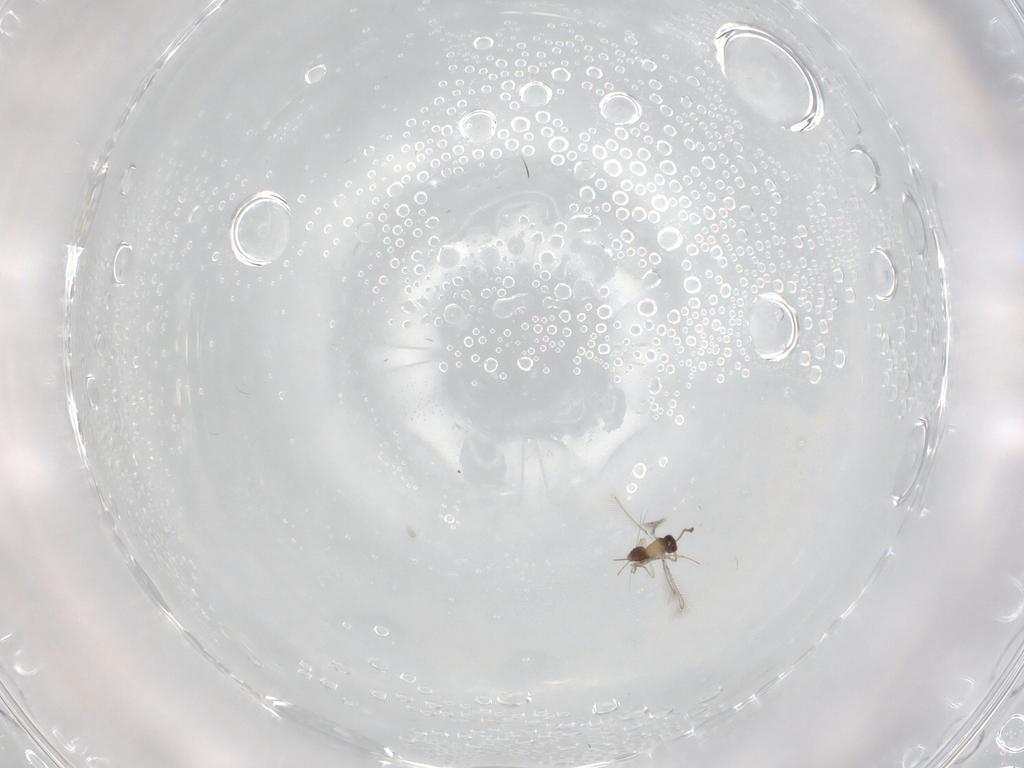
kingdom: Animalia
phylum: Arthropoda
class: Insecta
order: Hymenoptera
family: Mymaridae
